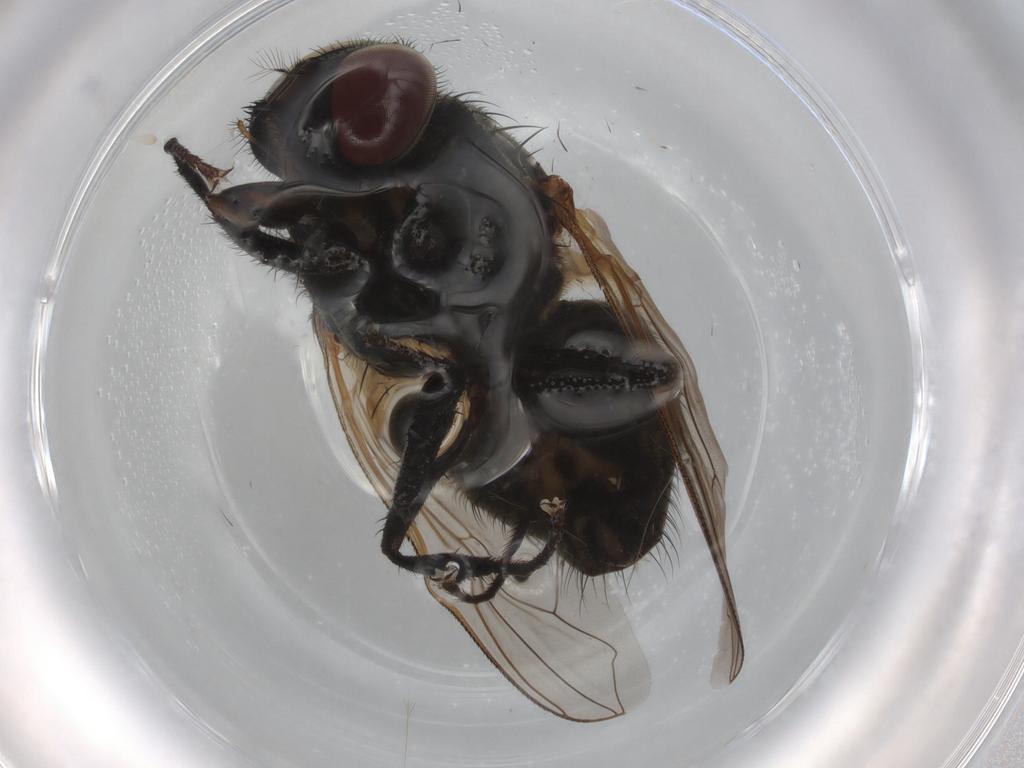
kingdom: Animalia
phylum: Arthropoda
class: Insecta
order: Diptera
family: Muscidae
